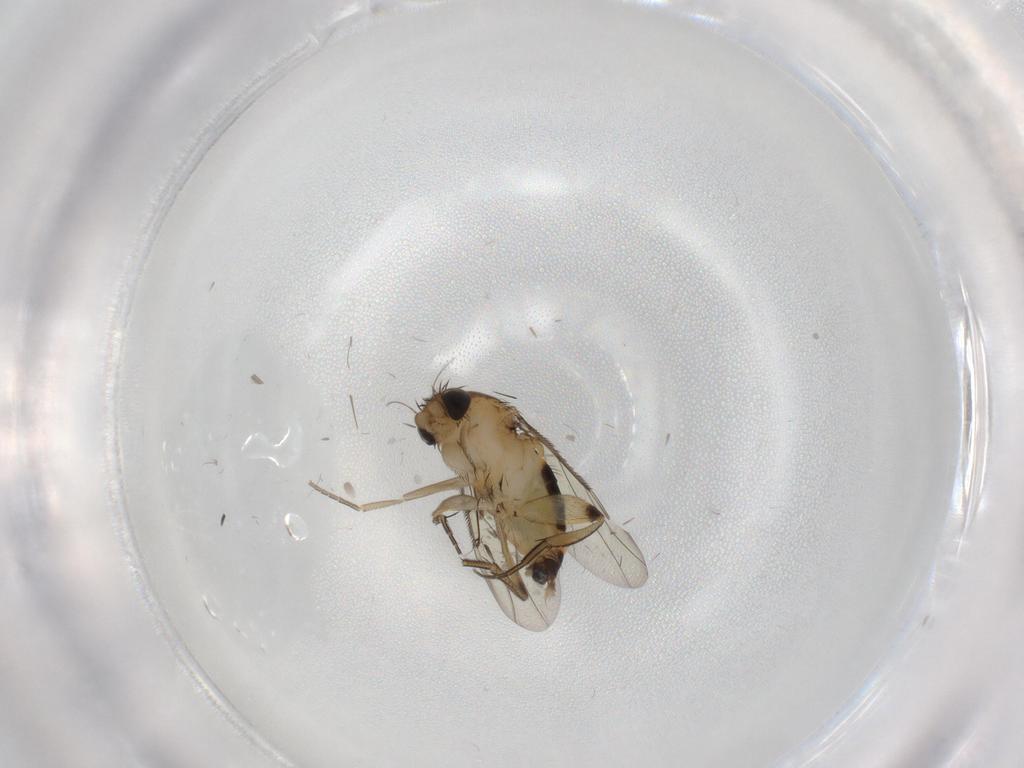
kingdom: Animalia
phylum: Arthropoda
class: Insecta
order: Diptera
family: Phoridae
